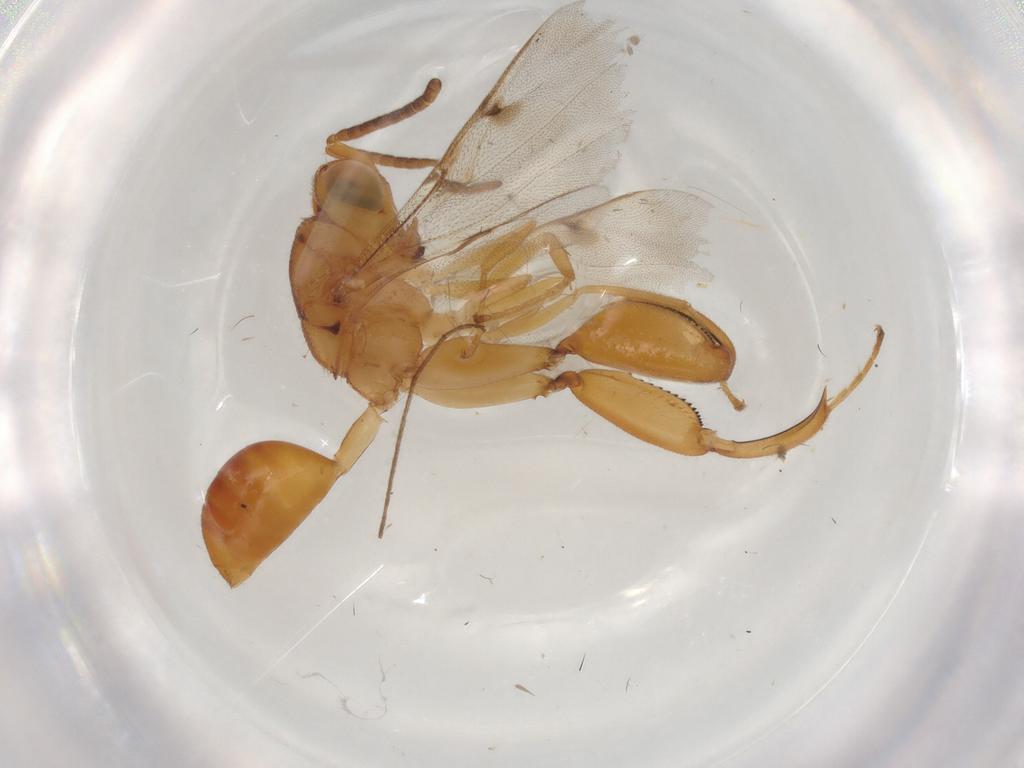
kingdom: Animalia
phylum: Arthropoda
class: Insecta
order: Hymenoptera
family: Chalcididae
